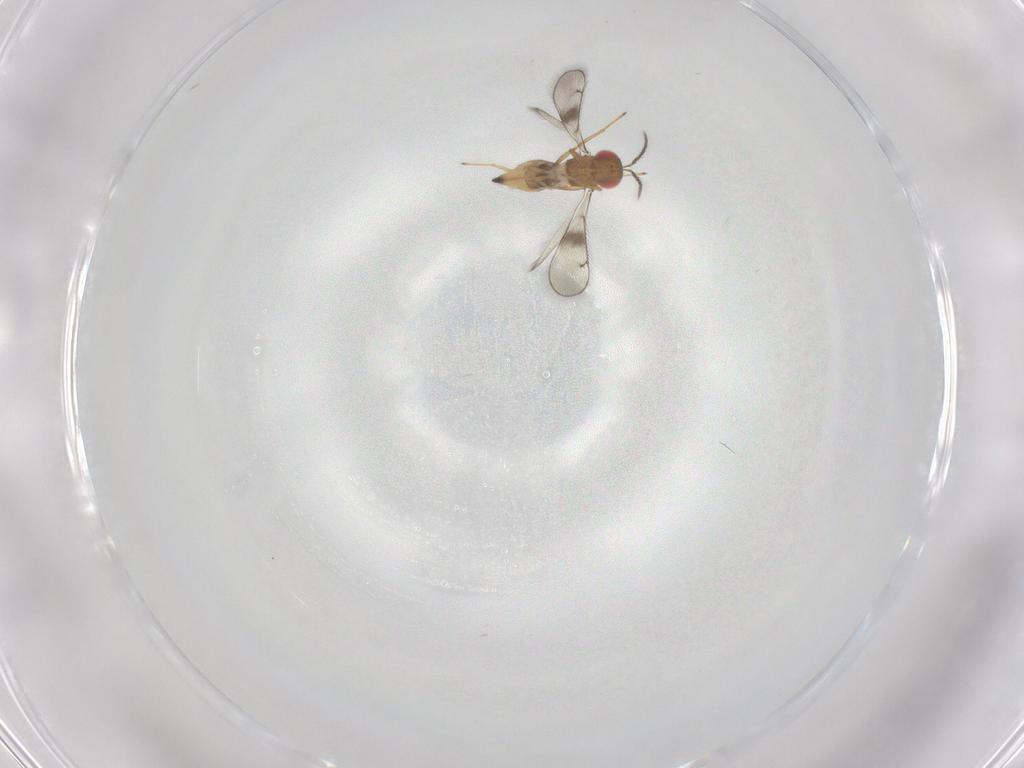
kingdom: Animalia
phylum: Arthropoda
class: Insecta
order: Hymenoptera
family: Eulophidae
